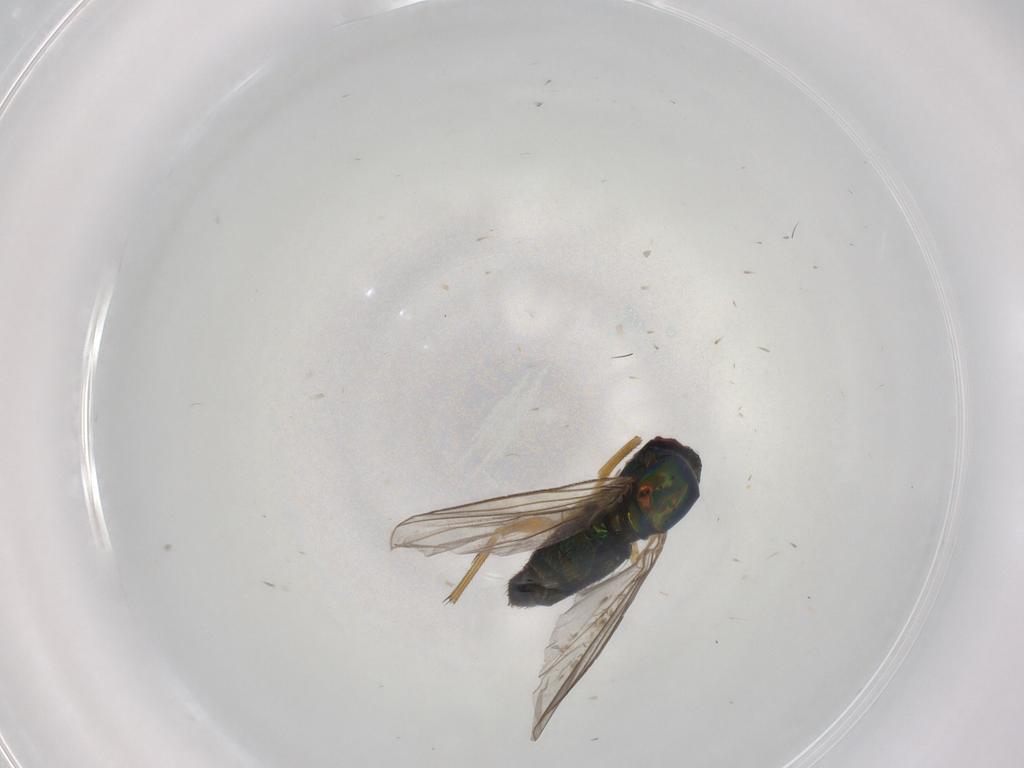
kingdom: Animalia
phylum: Arthropoda
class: Insecta
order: Diptera
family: Dolichopodidae
